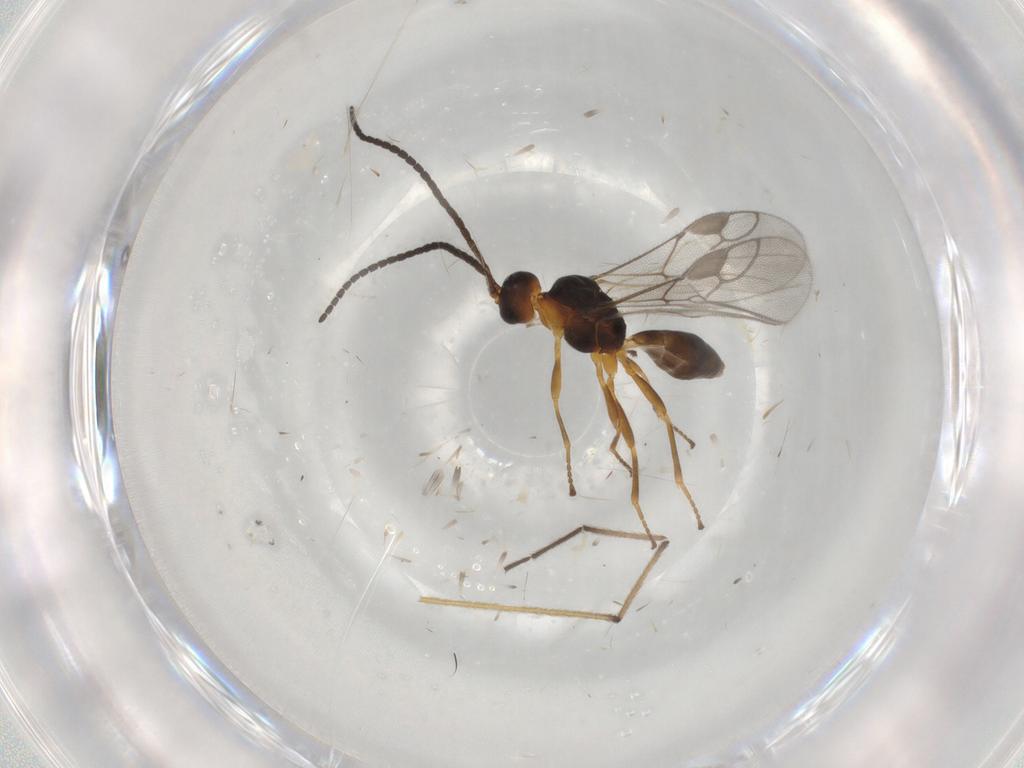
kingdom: Animalia
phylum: Arthropoda
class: Insecta
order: Hymenoptera
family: Braconidae
